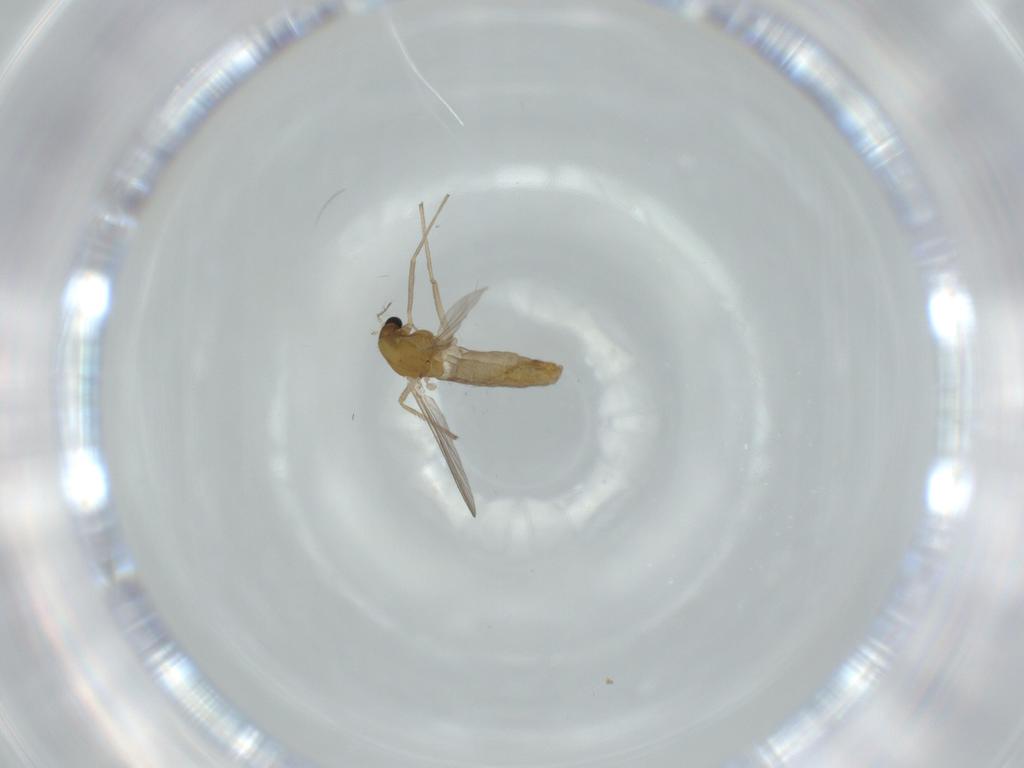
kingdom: Animalia
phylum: Arthropoda
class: Insecta
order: Diptera
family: Chironomidae
